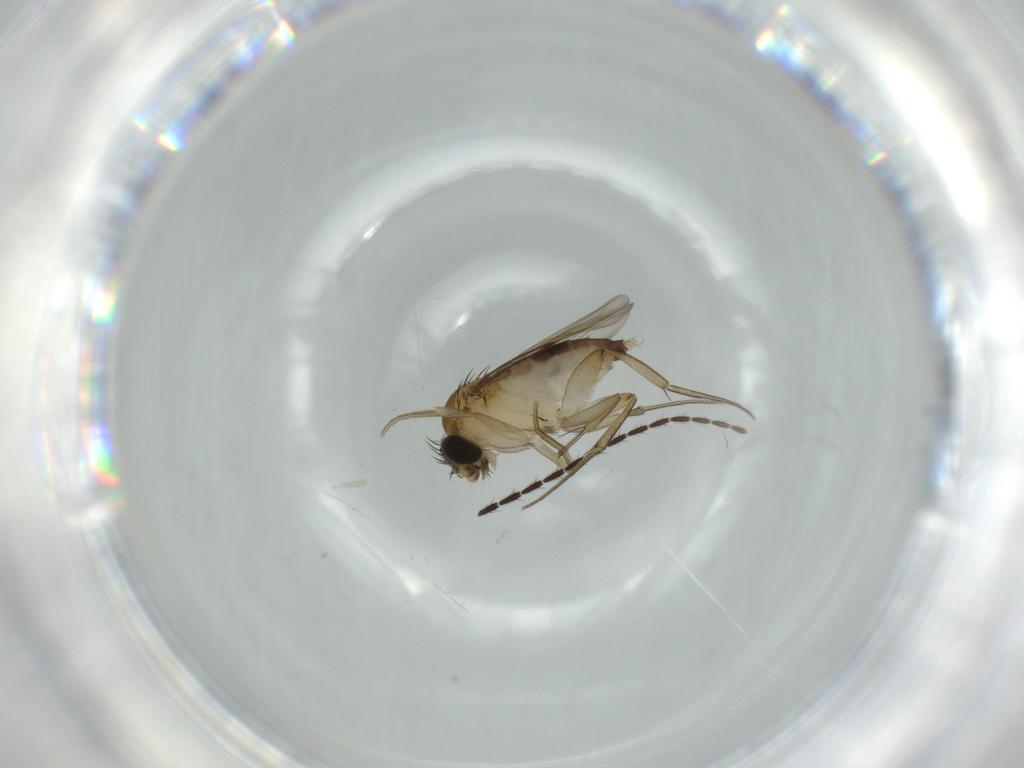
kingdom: Animalia
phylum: Arthropoda
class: Insecta
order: Diptera
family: Phoridae
